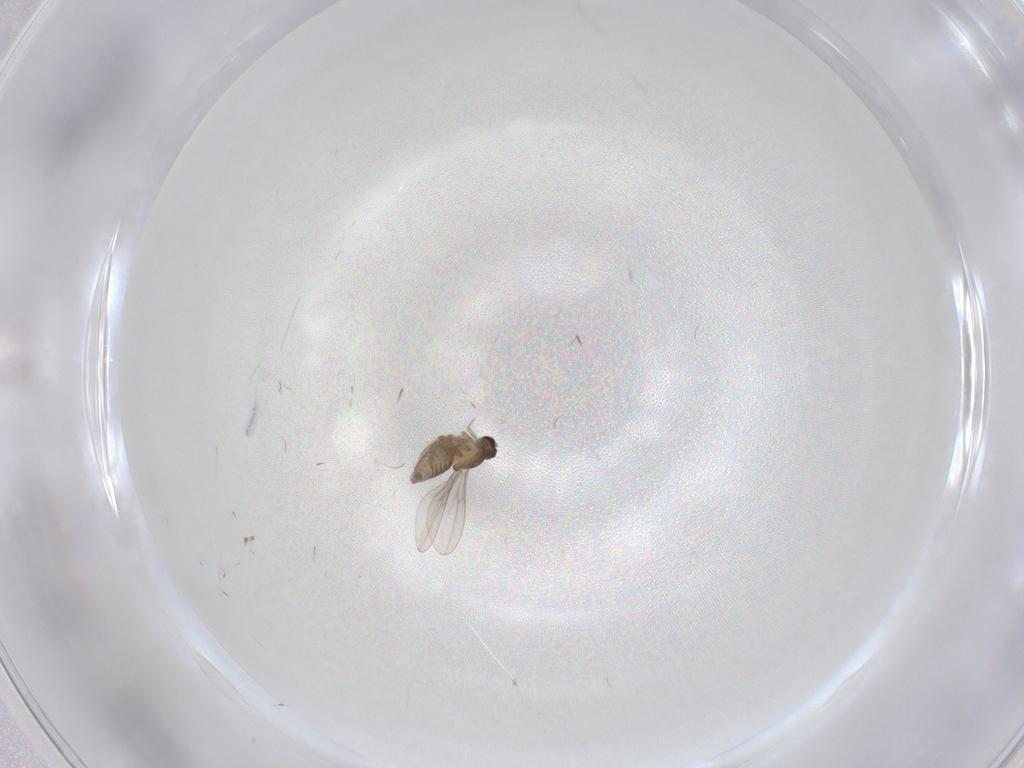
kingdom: Animalia
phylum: Arthropoda
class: Insecta
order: Diptera
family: Cecidomyiidae
